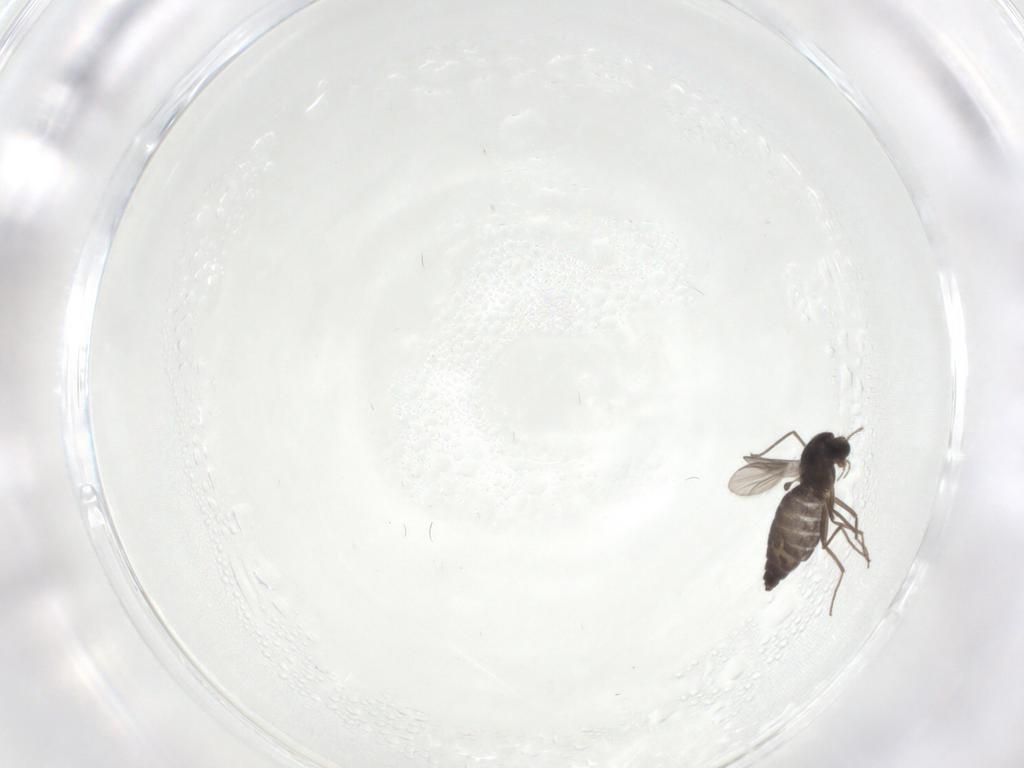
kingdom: Animalia
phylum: Arthropoda
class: Insecta
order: Diptera
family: Chironomidae
